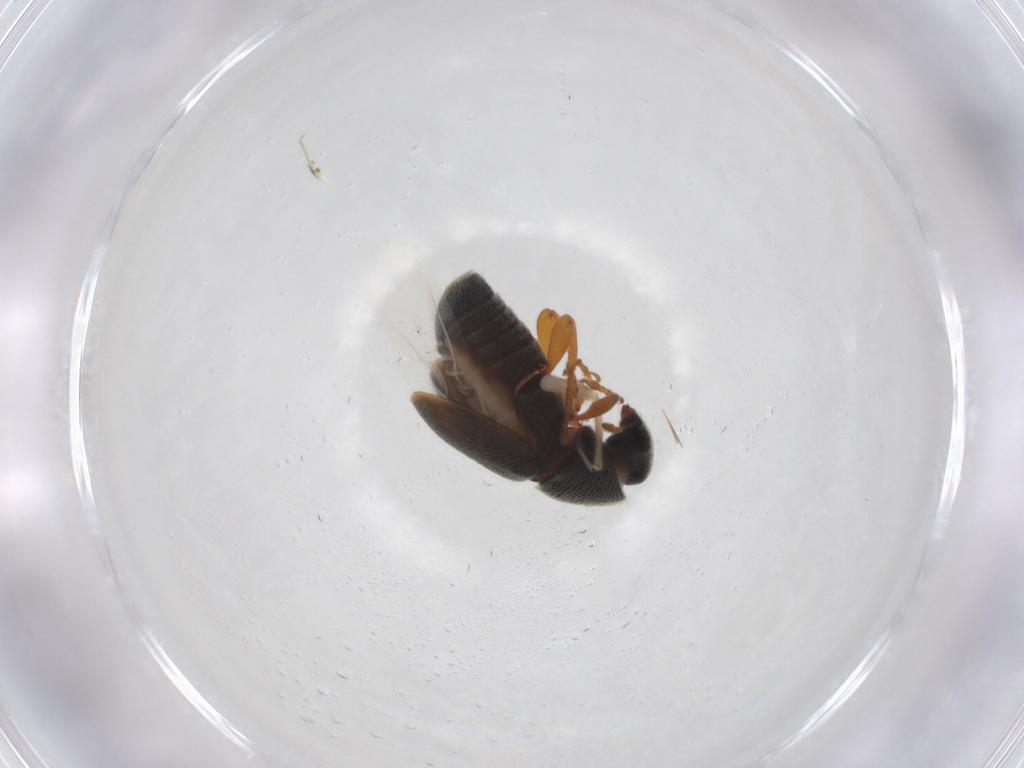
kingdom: Animalia
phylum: Arthropoda
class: Insecta
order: Coleoptera
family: Anthribidae
